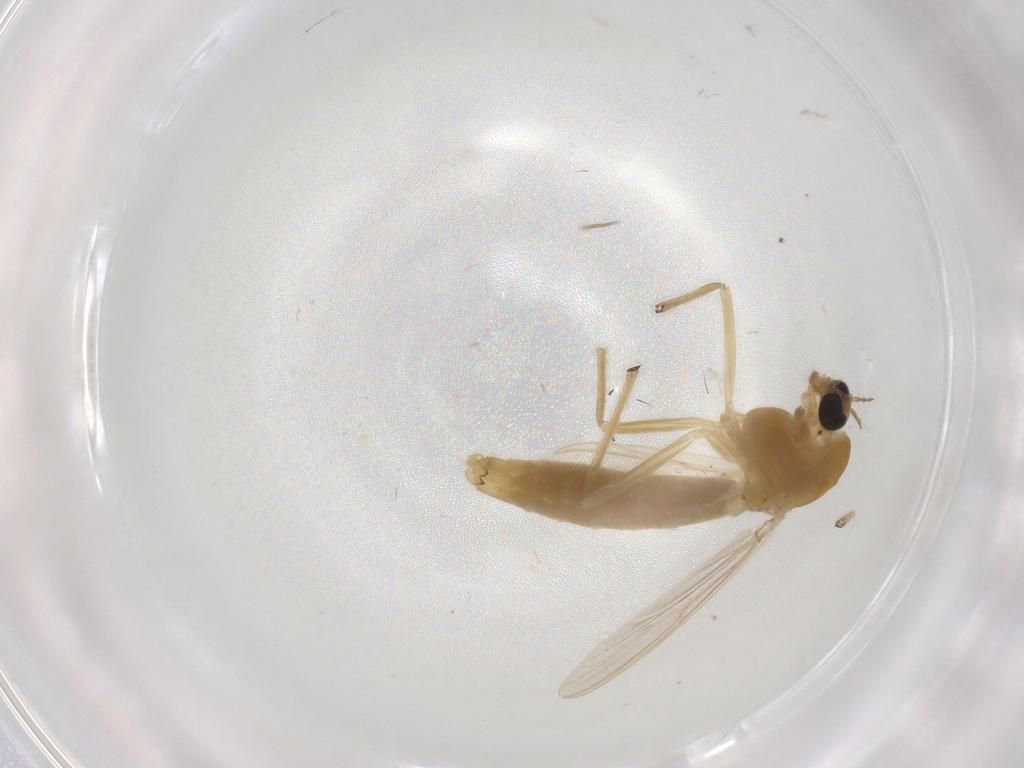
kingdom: Animalia
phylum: Arthropoda
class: Insecta
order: Diptera
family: Chironomidae
